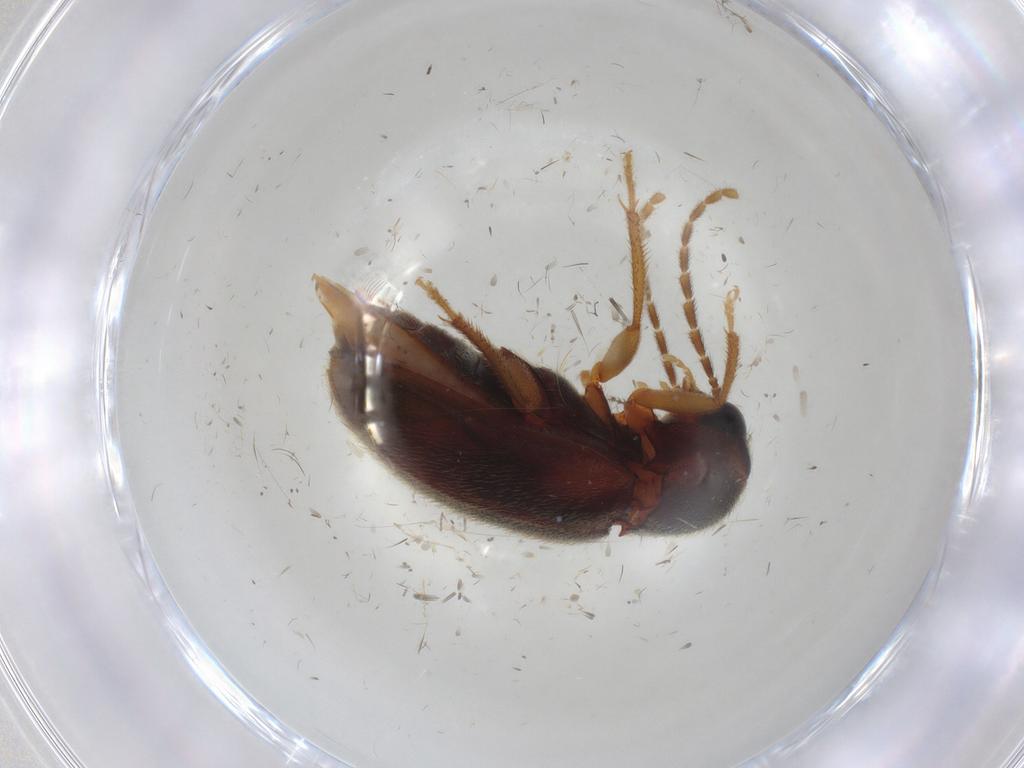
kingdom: Animalia
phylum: Arthropoda
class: Insecta
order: Coleoptera
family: Ptilodactylidae
